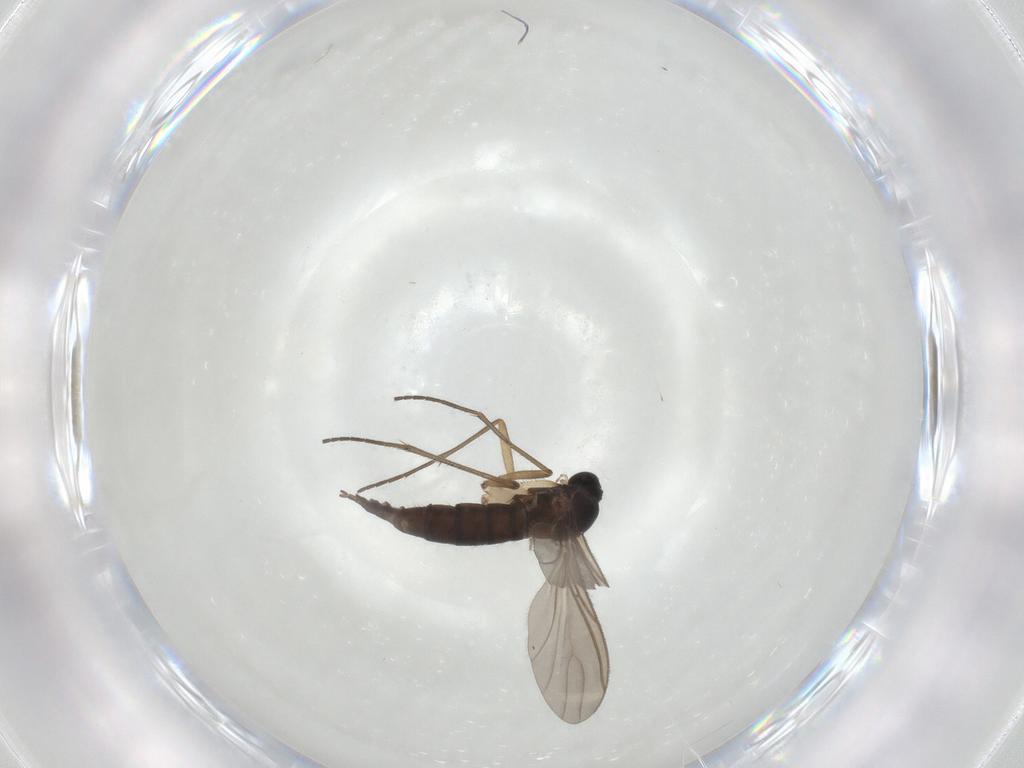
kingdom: Animalia
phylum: Arthropoda
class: Insecta
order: Diptera
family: Sciaridae
